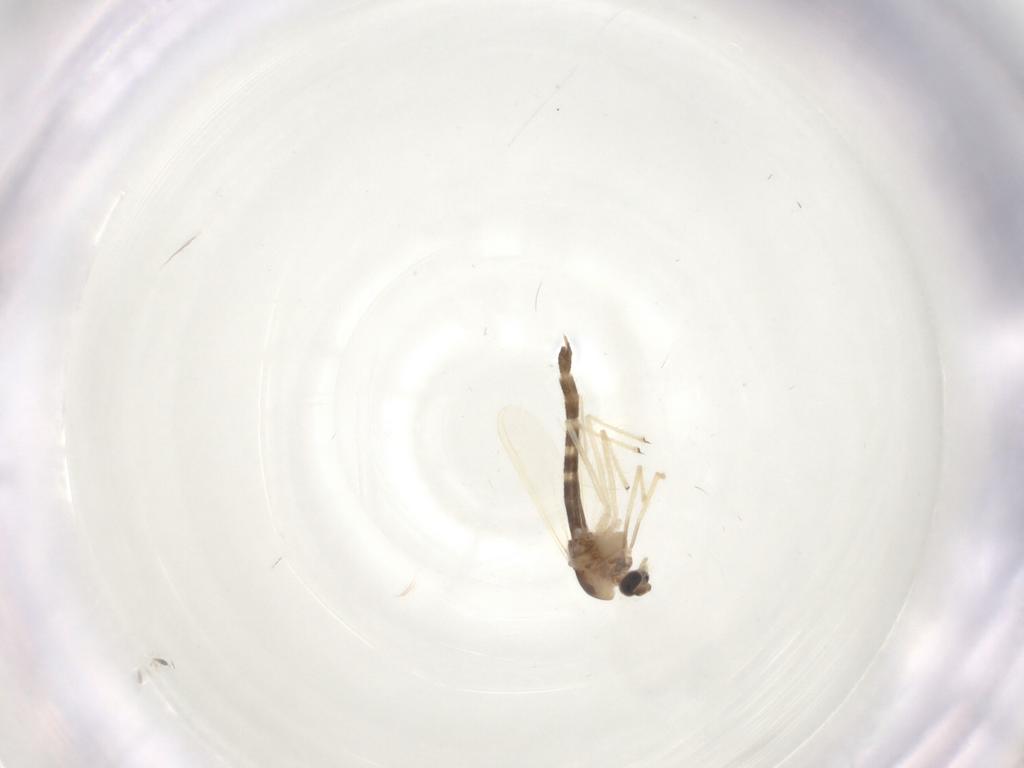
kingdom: Animalia
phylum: Arthropoda
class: Insecta
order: Diptera
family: Chironomidae
